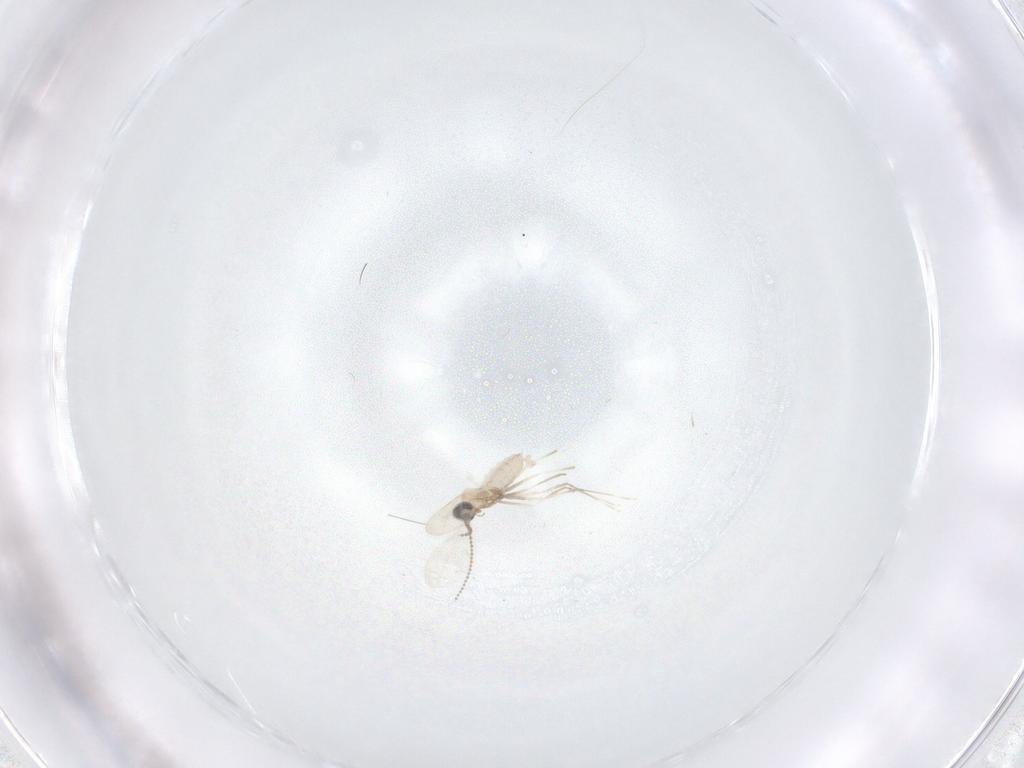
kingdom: Animalia
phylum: Arthropoda
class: Insecta
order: Diptera
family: Cecidomyiidae
